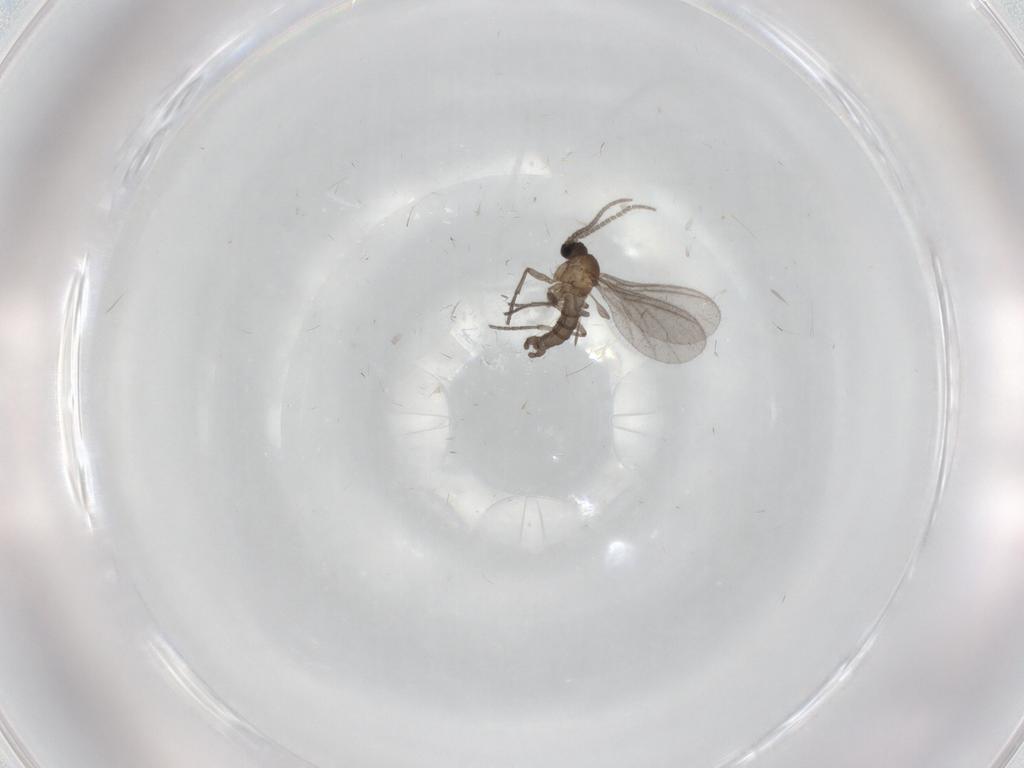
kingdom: Animalia
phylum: Arthropoda
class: Insecta
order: Diptera
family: Sciaridae
